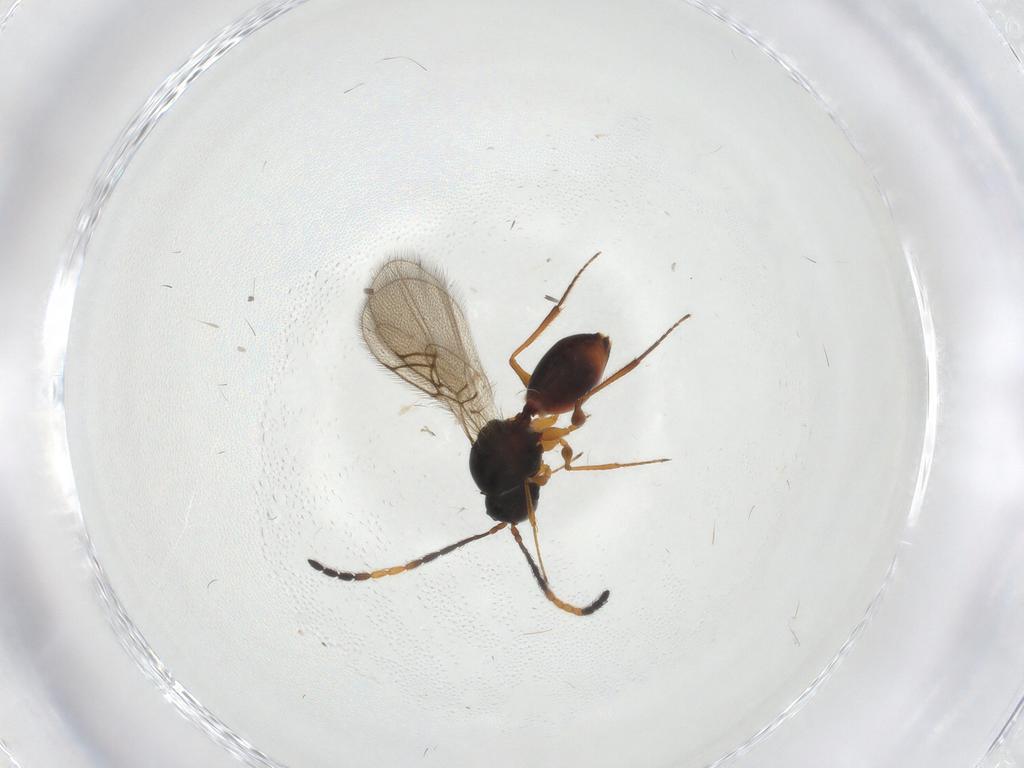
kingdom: Animalia
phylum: Arthropoda
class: Insecta
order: Hymenoptera
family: Figitidae
